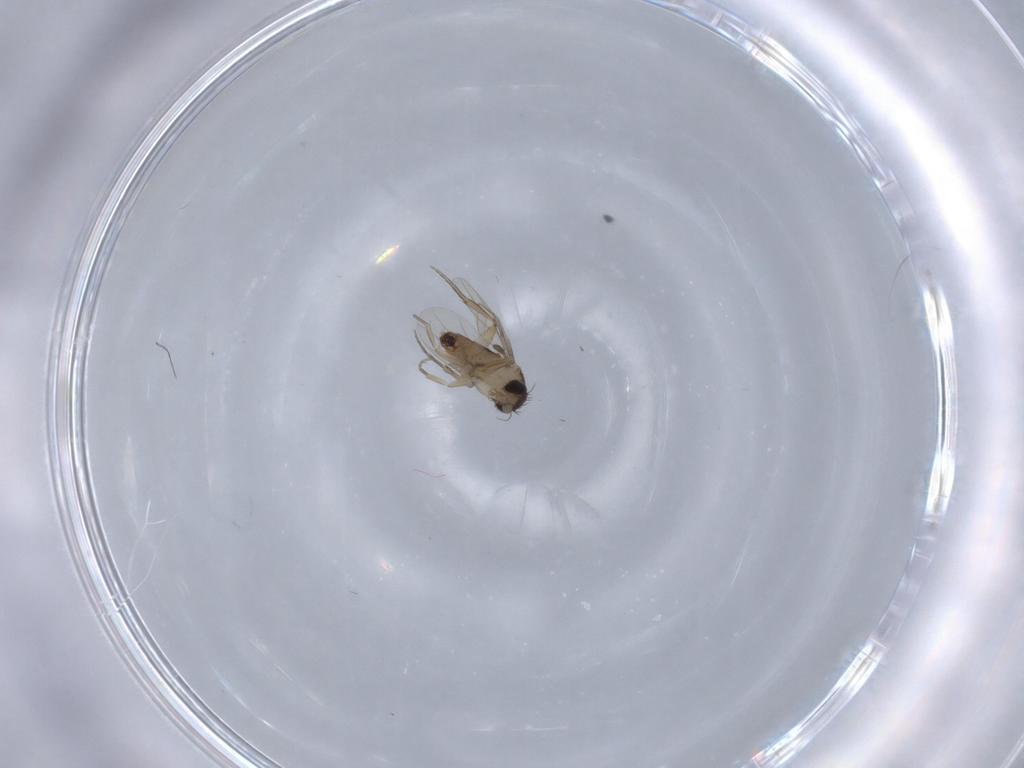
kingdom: Animalia
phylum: Arthropoda
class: Insecta
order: Diptera
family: Phoridae
